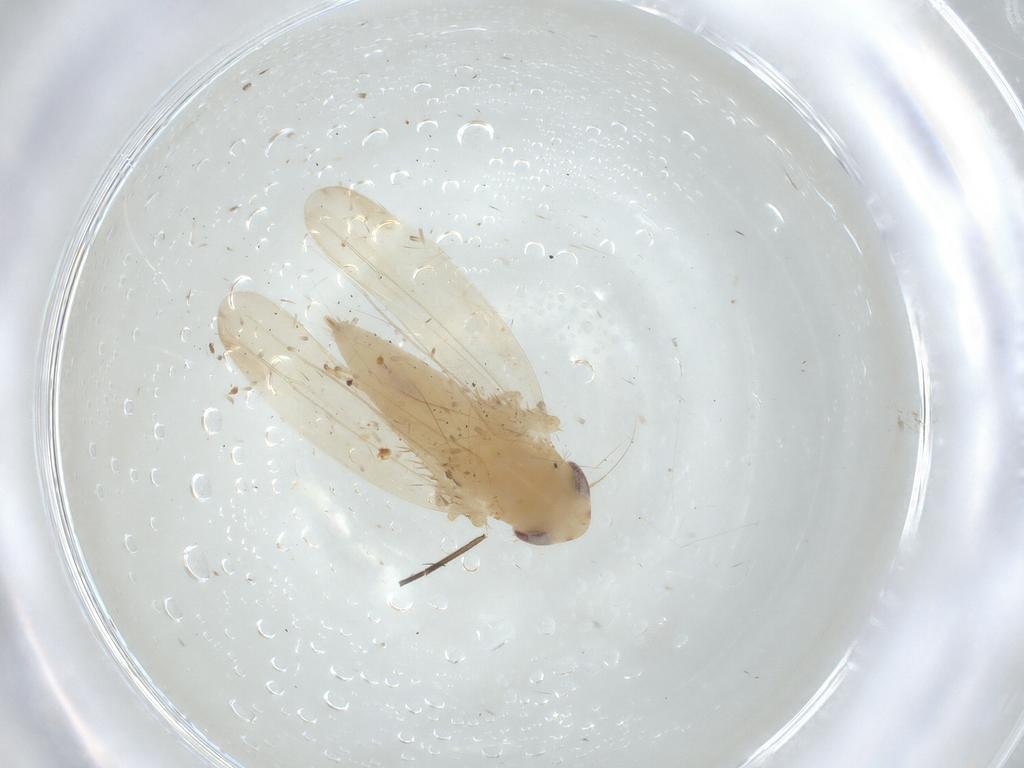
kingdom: Animalia
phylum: Arthropoda
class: Insecta
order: Hemiptera
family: Cicadellidae
